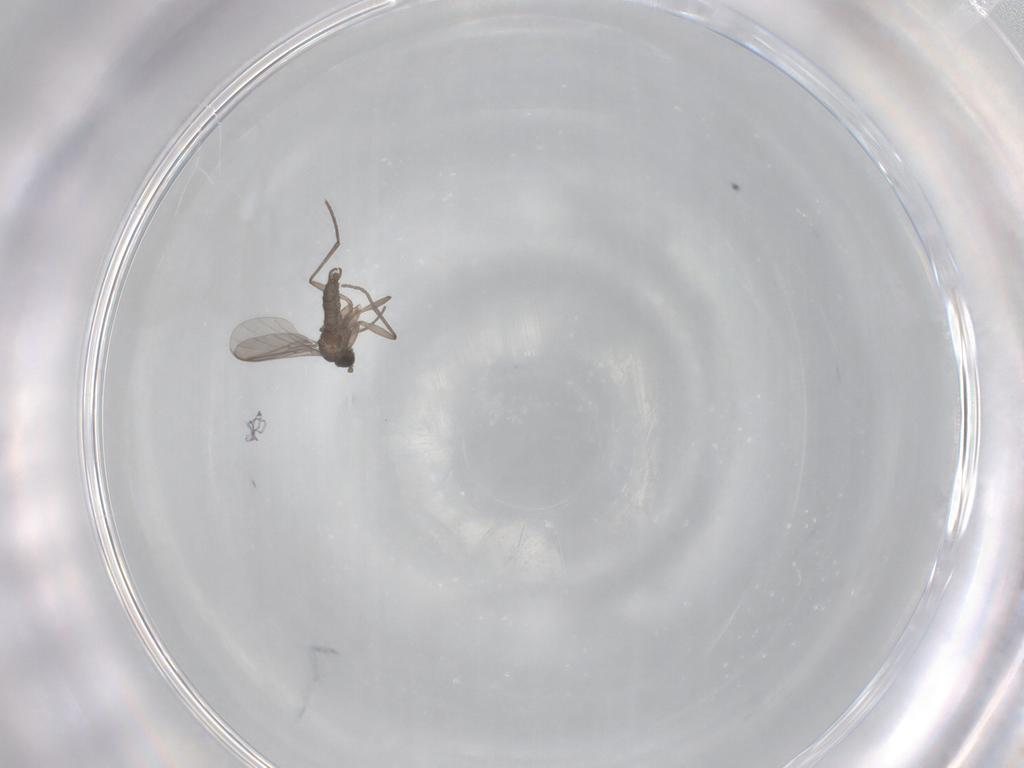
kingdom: Animalia
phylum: Arthropoda
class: Insecta
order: Diptera
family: Sciaridae
